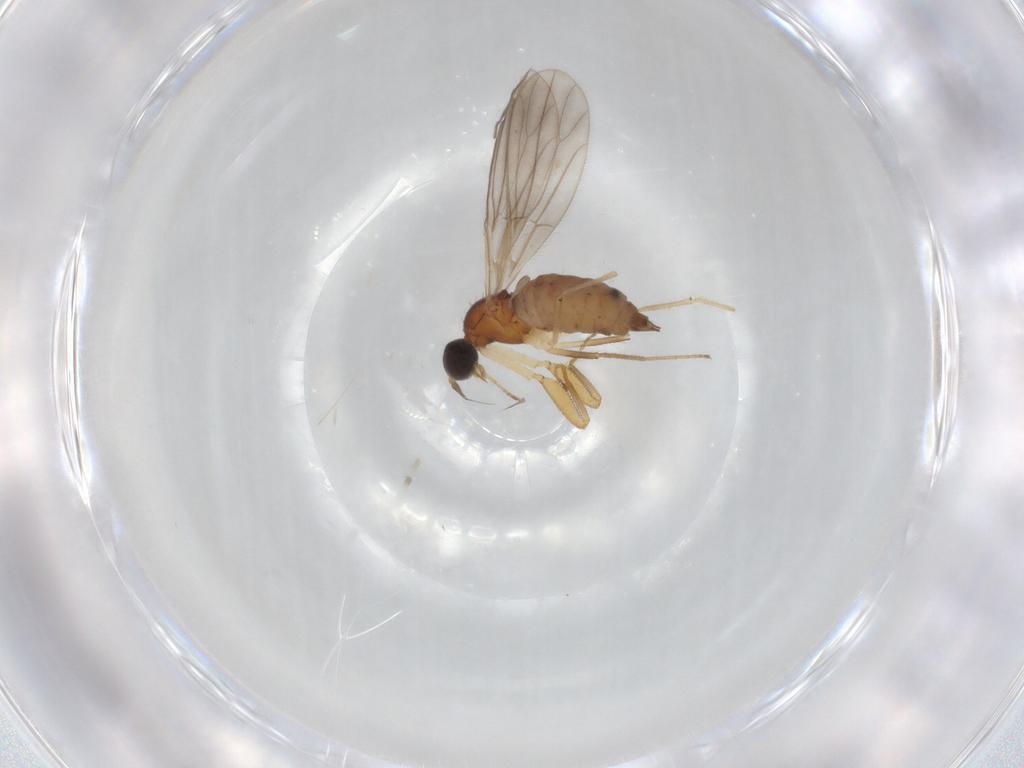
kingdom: Animalia
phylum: Arthropoda
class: Insecta
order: Diptera
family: Empididae
